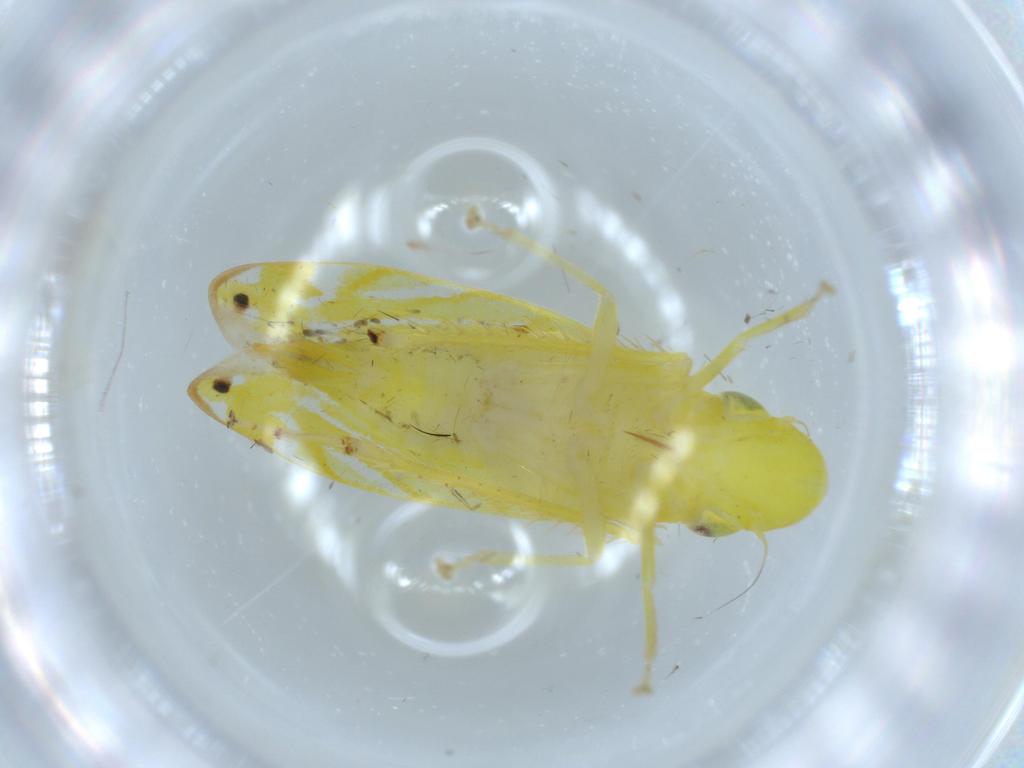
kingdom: Animalia
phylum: Arthropoda
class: Insecta
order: Hemiptera
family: Cicadellidae
